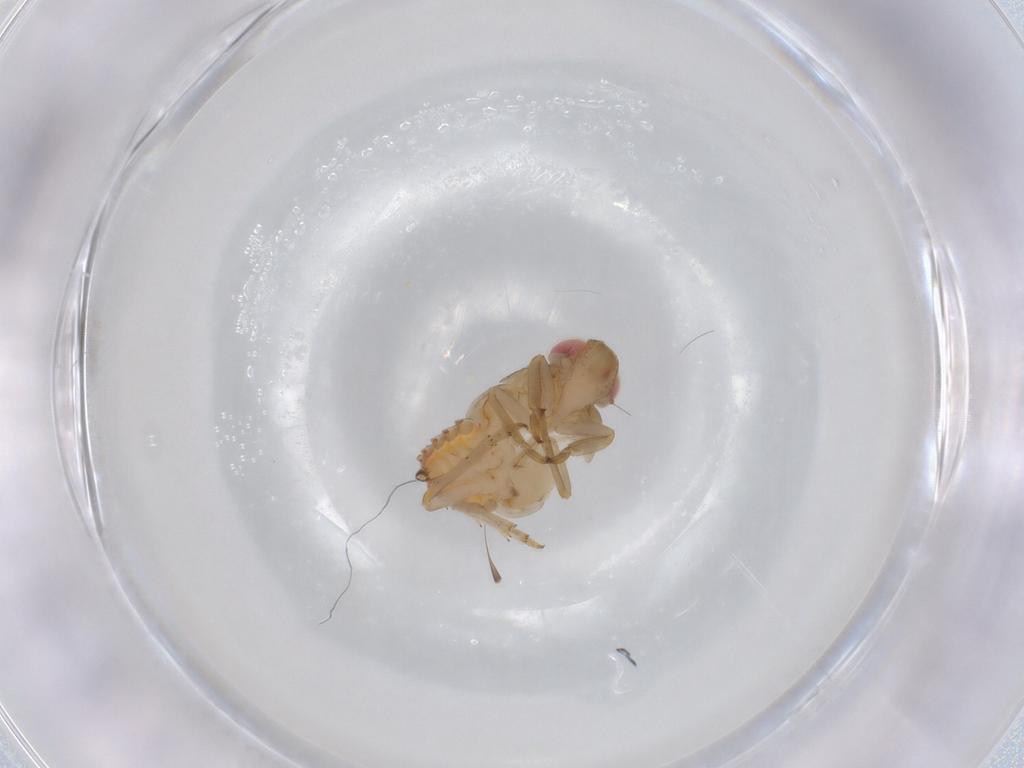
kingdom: Animalia
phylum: Arthropoda
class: Insecta
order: Hemiptera
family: Fulgoroidea_incertae_sedis
